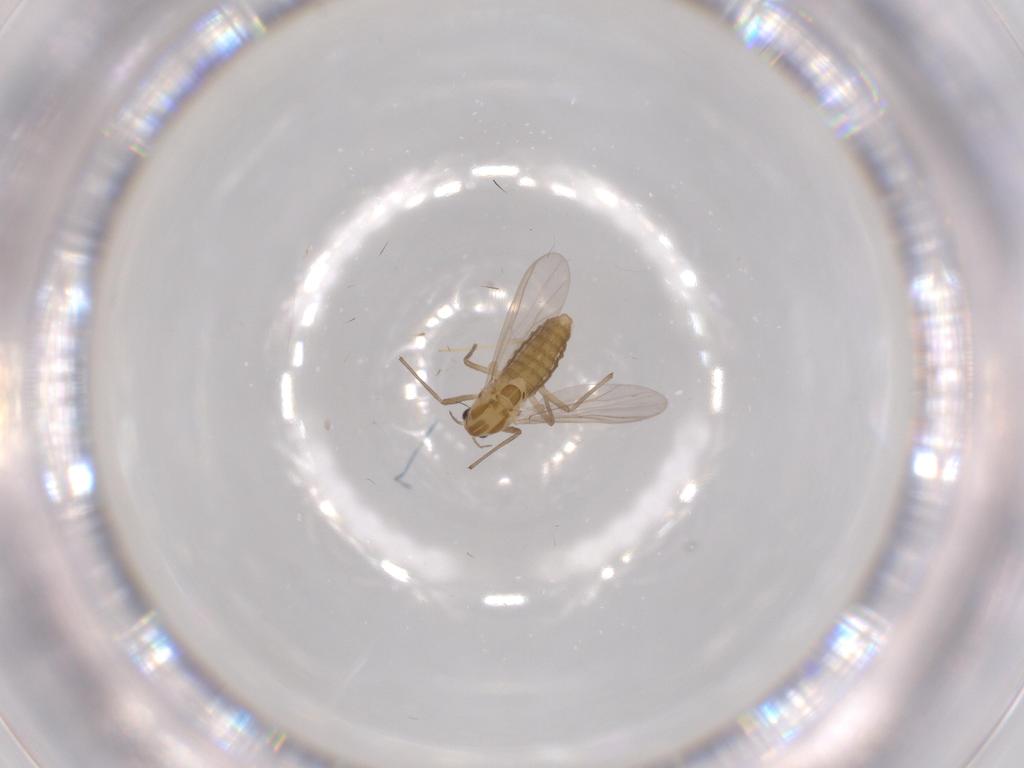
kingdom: Animalia
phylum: Arthropoda
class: Insecta
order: Diptera
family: Chironomidae
